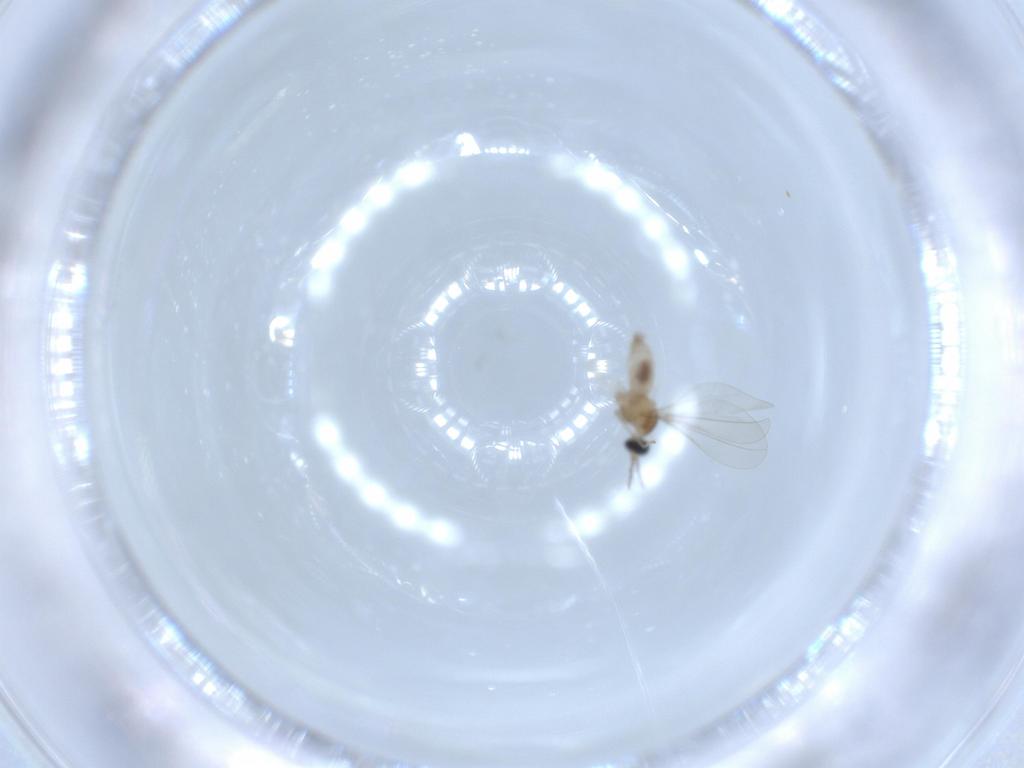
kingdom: Animalia
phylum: Arthropoda
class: Insecta
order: Diptera
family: Cecidomyiidae
